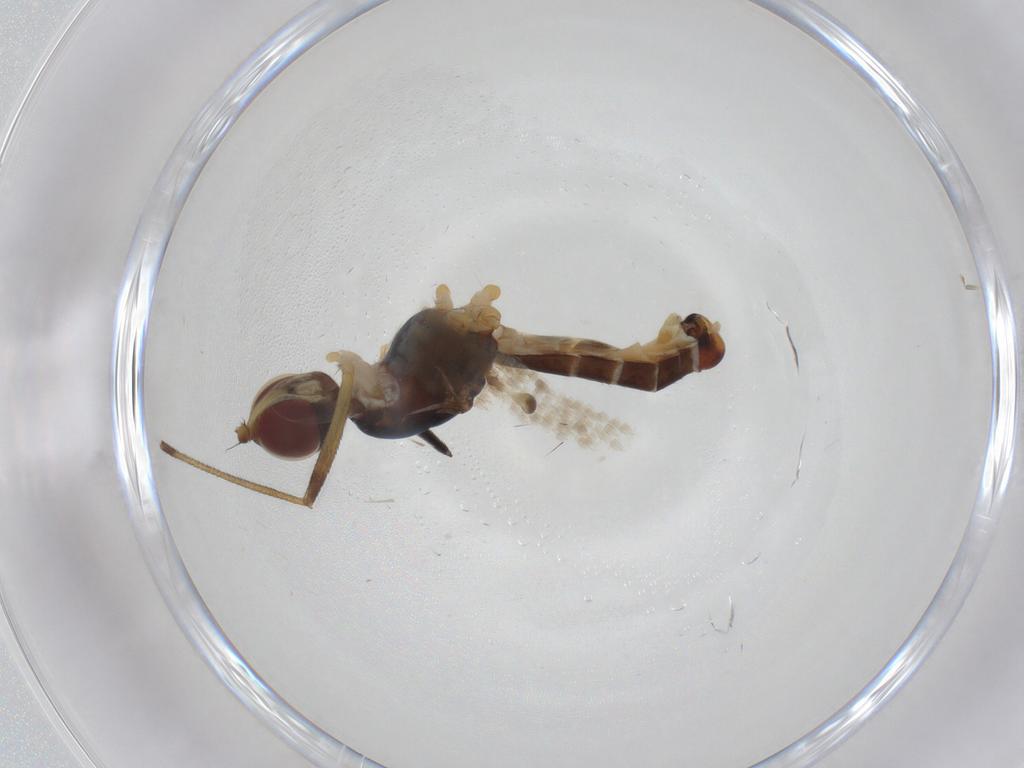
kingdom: Animalia
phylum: Arthropoda
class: Insecta
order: Diptera
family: Micropezidae
